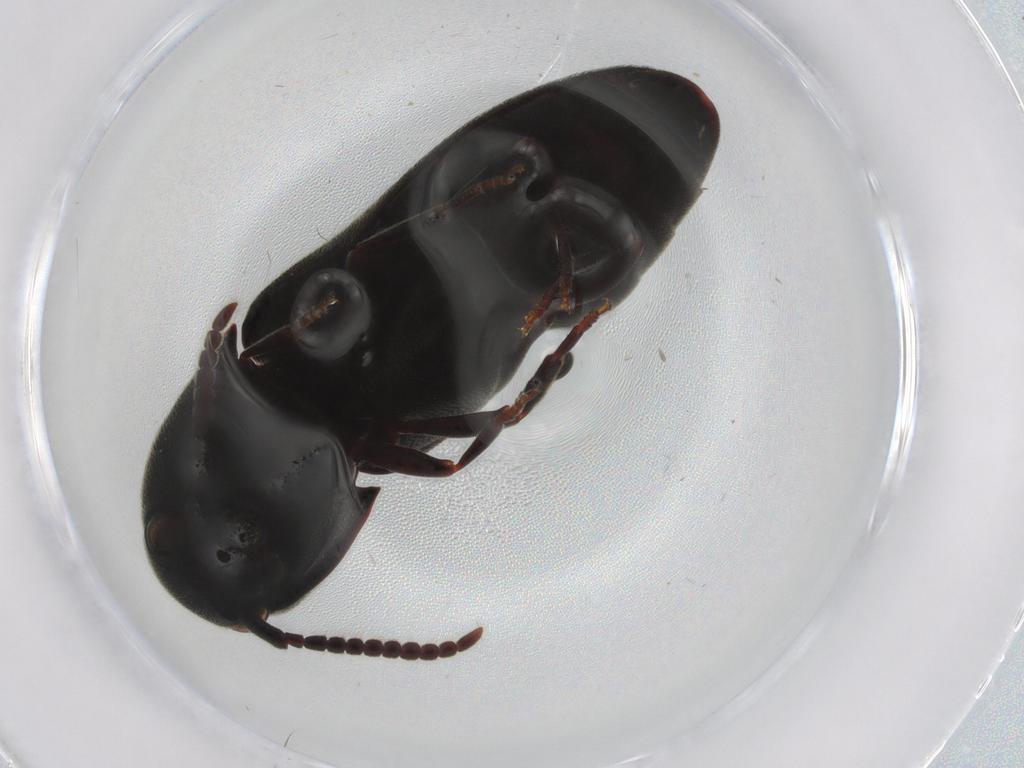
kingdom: Animalia
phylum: Arthropoda
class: Insecta
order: Coleoptera
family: Eucnemidae
